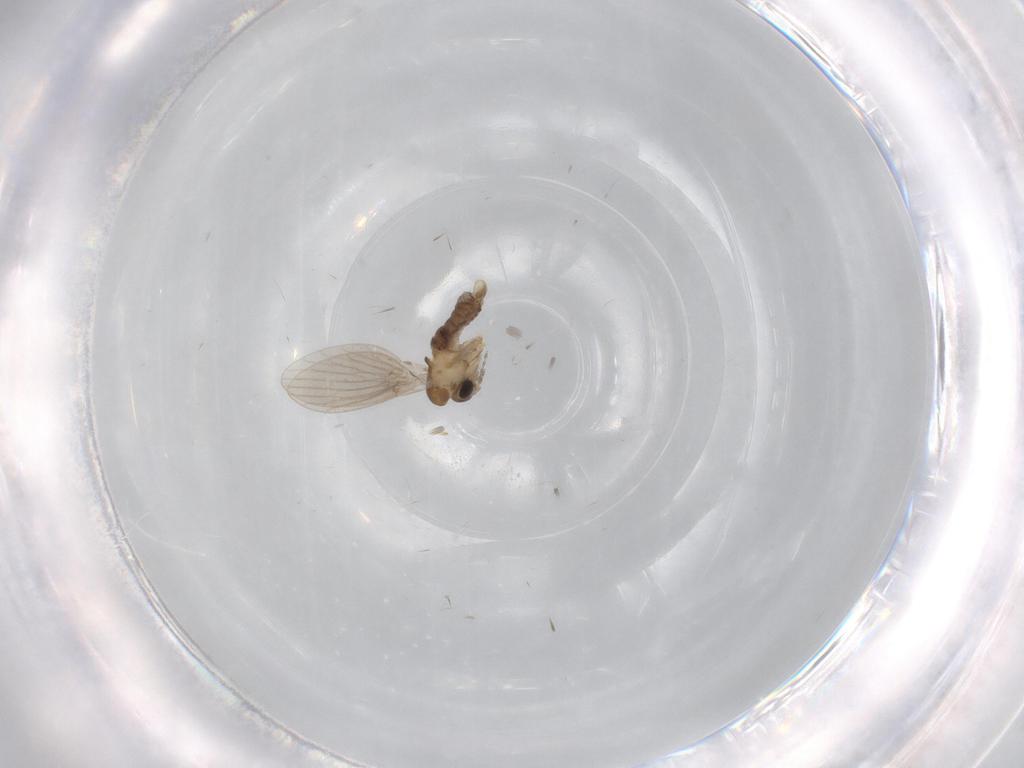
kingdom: Animalia
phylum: Arthropoda
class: Insecta
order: Diptera
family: Psychodidae
